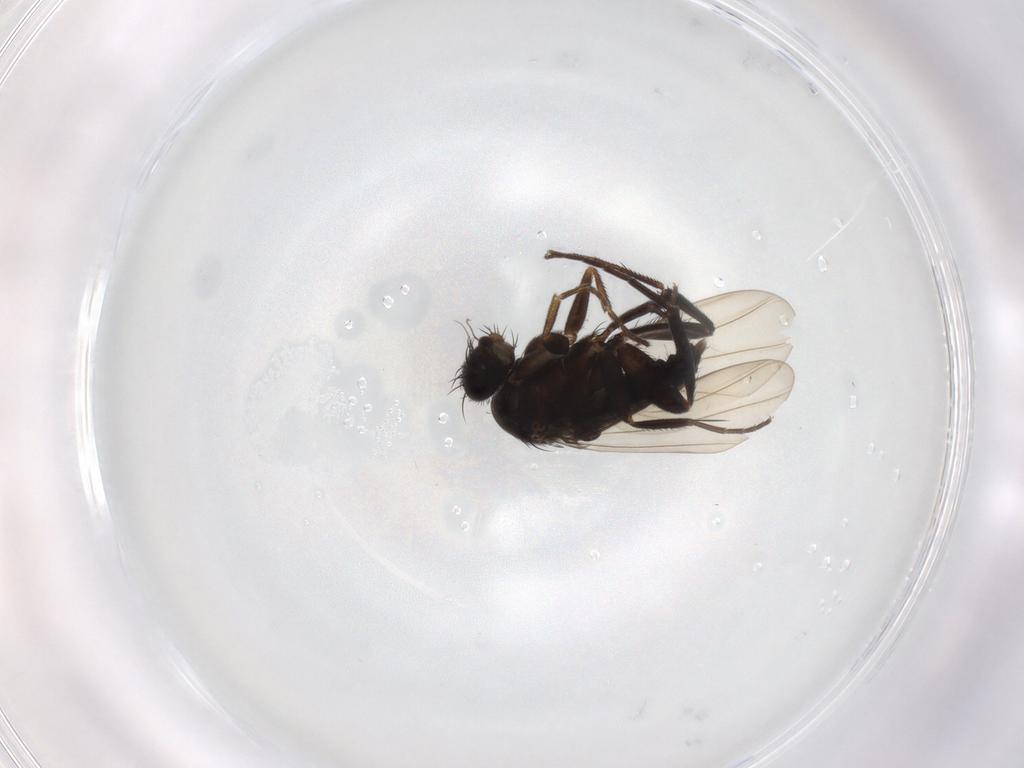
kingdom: Animalia
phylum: Arthropoda
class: Insecta
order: Diptera
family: Phoridae
